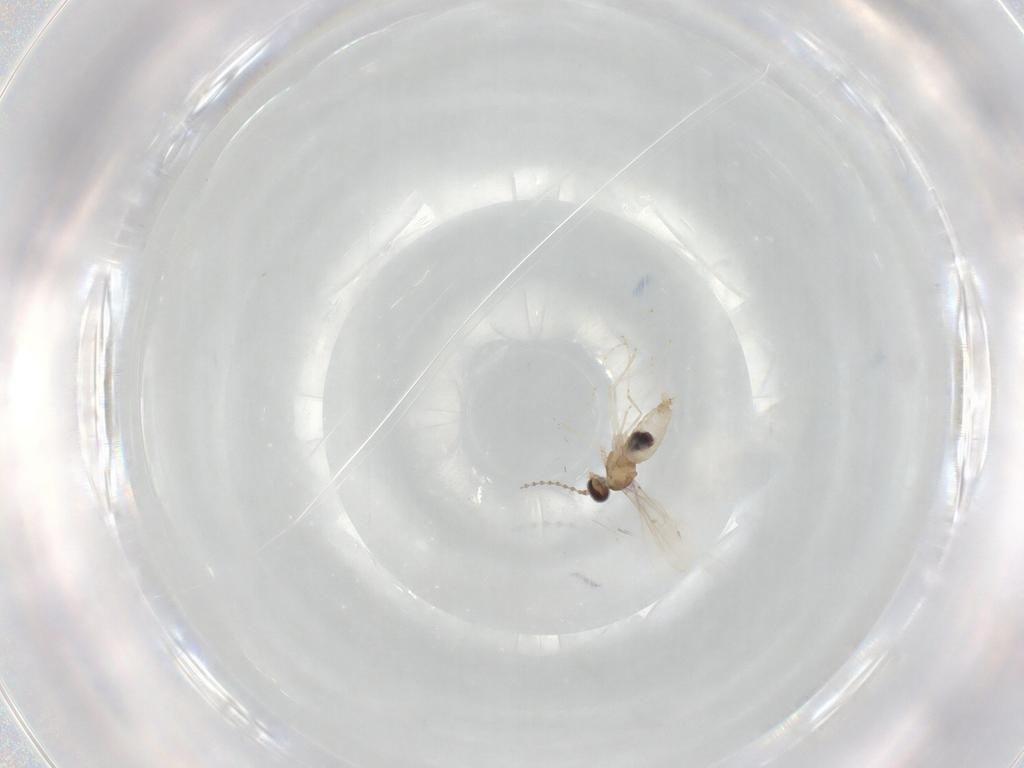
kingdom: Animalia
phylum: Arthropoda
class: Insecta
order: Diptera
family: Cecidomyiidae
